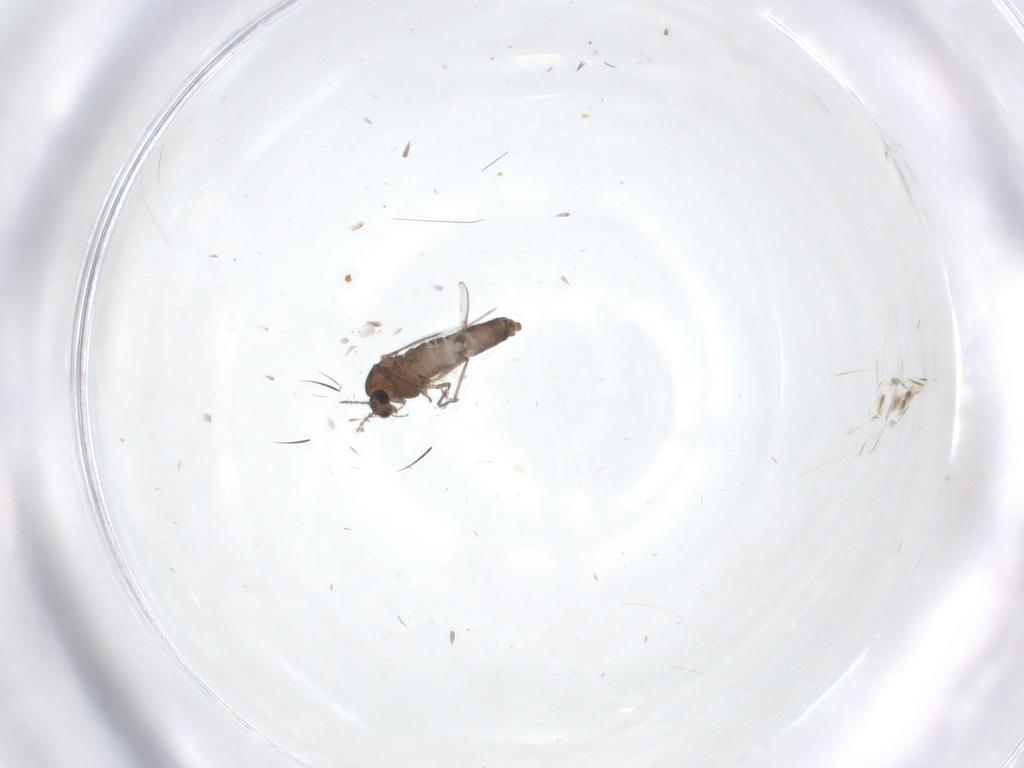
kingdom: Animalia
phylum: Arthropoda
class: Insecta
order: Diptera
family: Chironomidae
